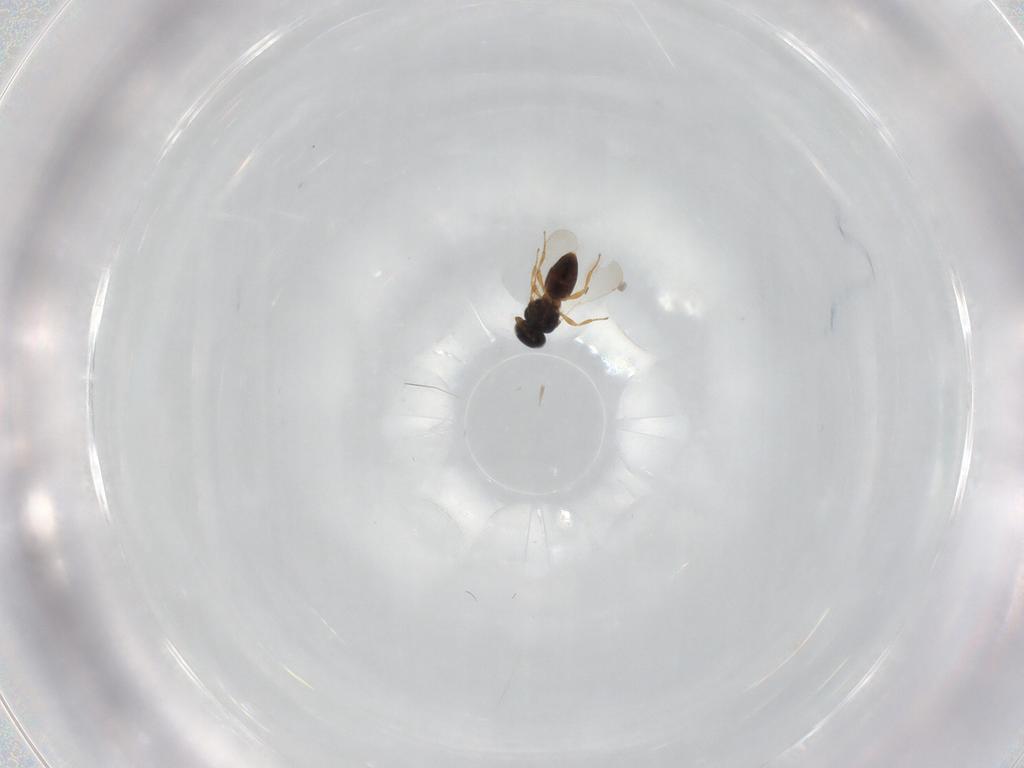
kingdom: Animalia
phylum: Arthropoda
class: Insecta
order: Hymenoptera
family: Platygastridae
